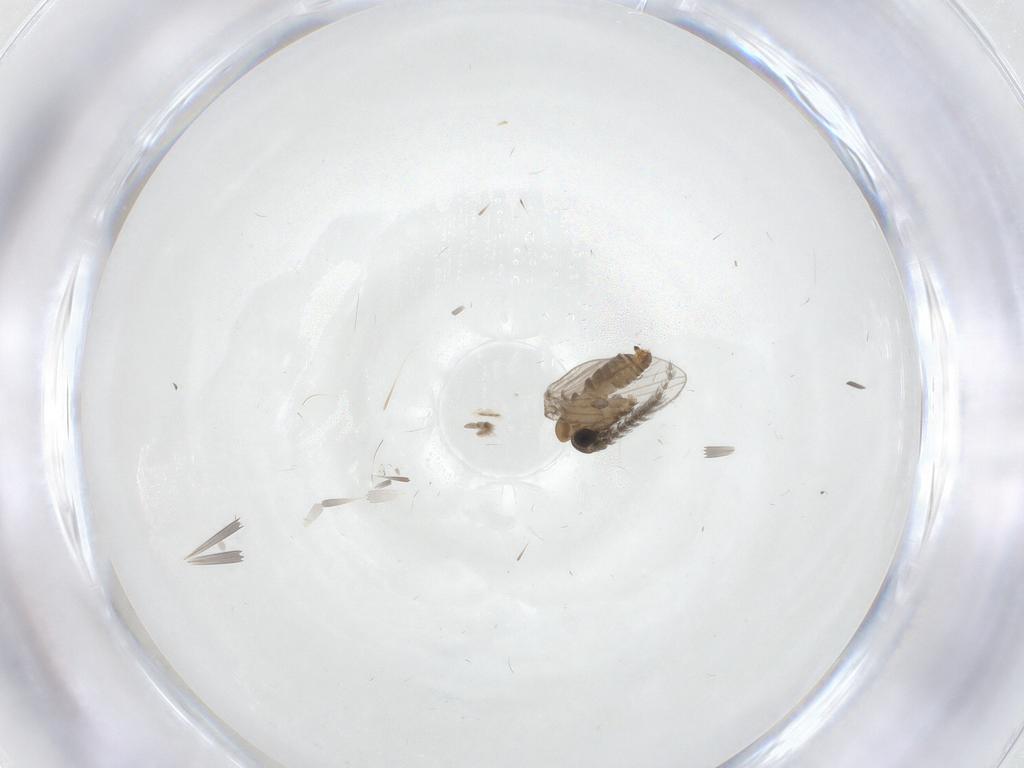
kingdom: Animalia
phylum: Arthropoda
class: Insecta
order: Diptera
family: Psychodidae
